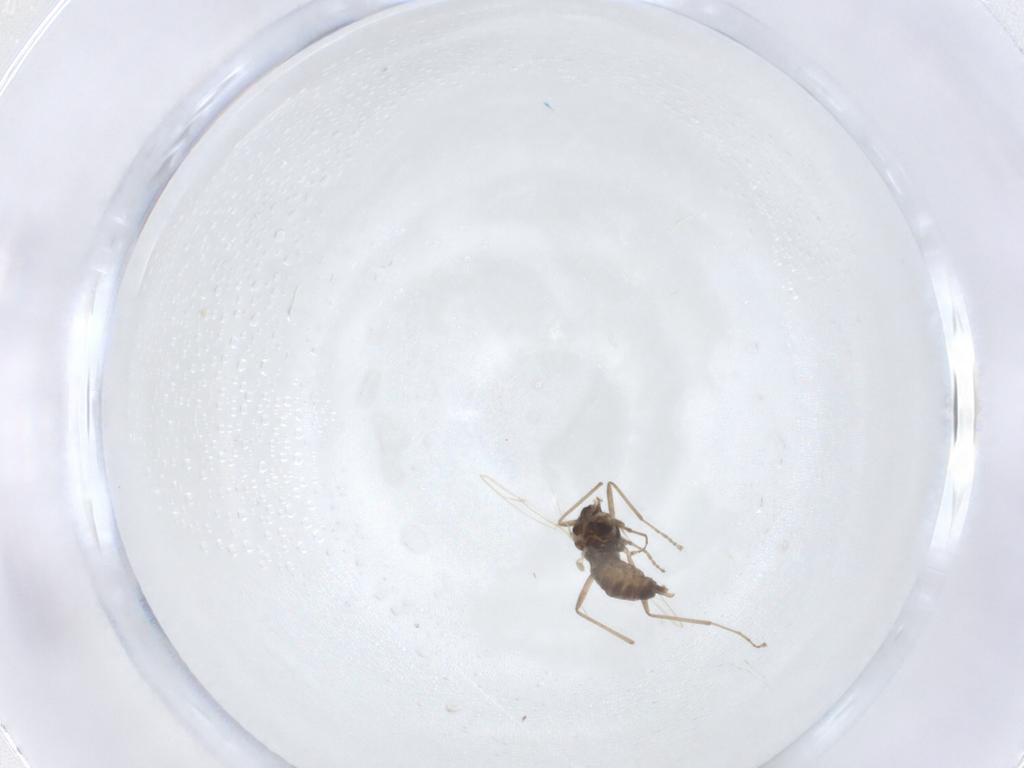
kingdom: Animalia
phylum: Arthropoda
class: Insecta
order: Diptera
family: Cecidomyiidae
